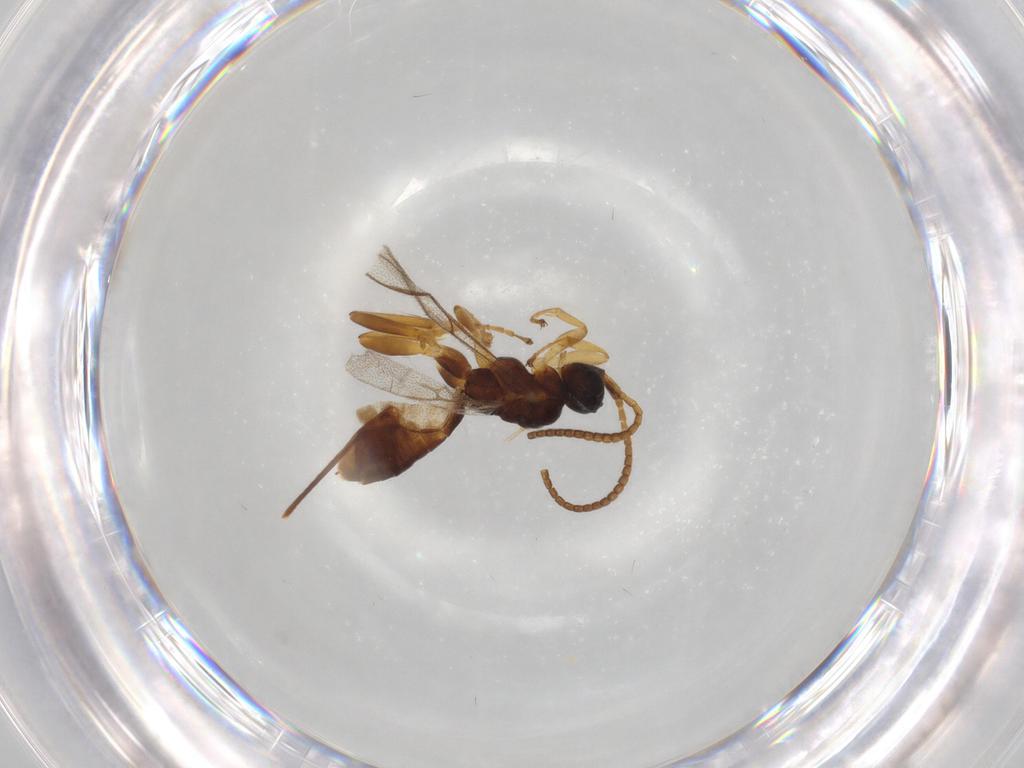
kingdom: Animalia
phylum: Arthropoda
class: Insecta
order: Hymenoptera
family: Ichneumonidae
